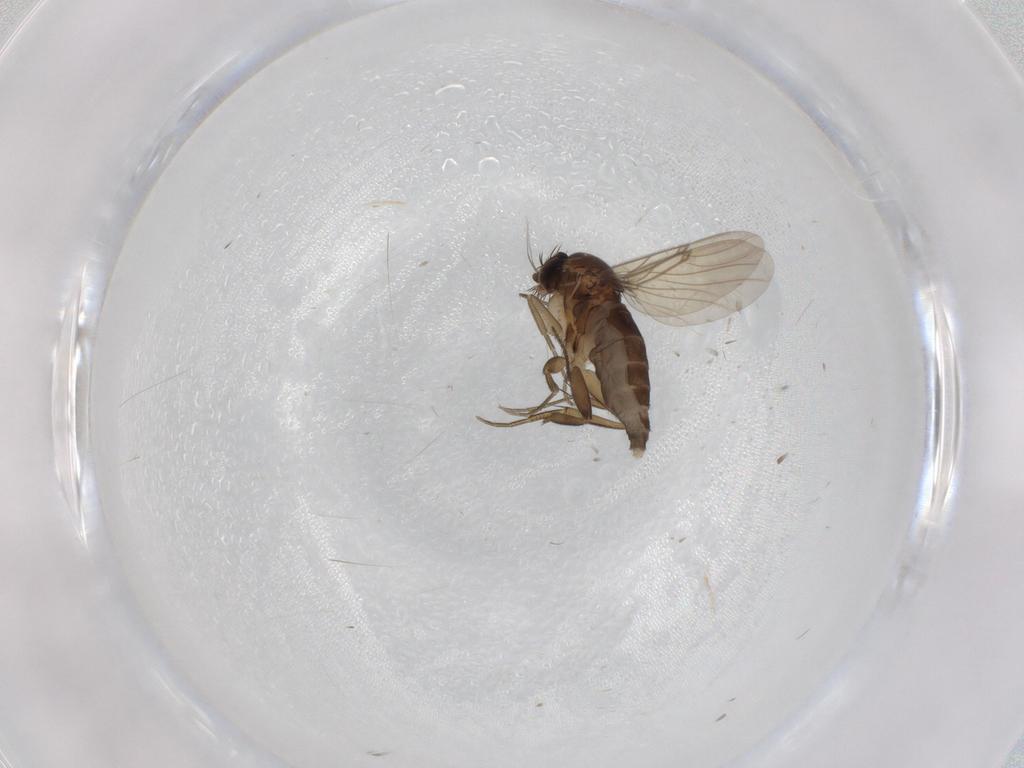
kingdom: Animalia
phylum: Arthropoda
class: Insecta
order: Diptera
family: Phoridae
